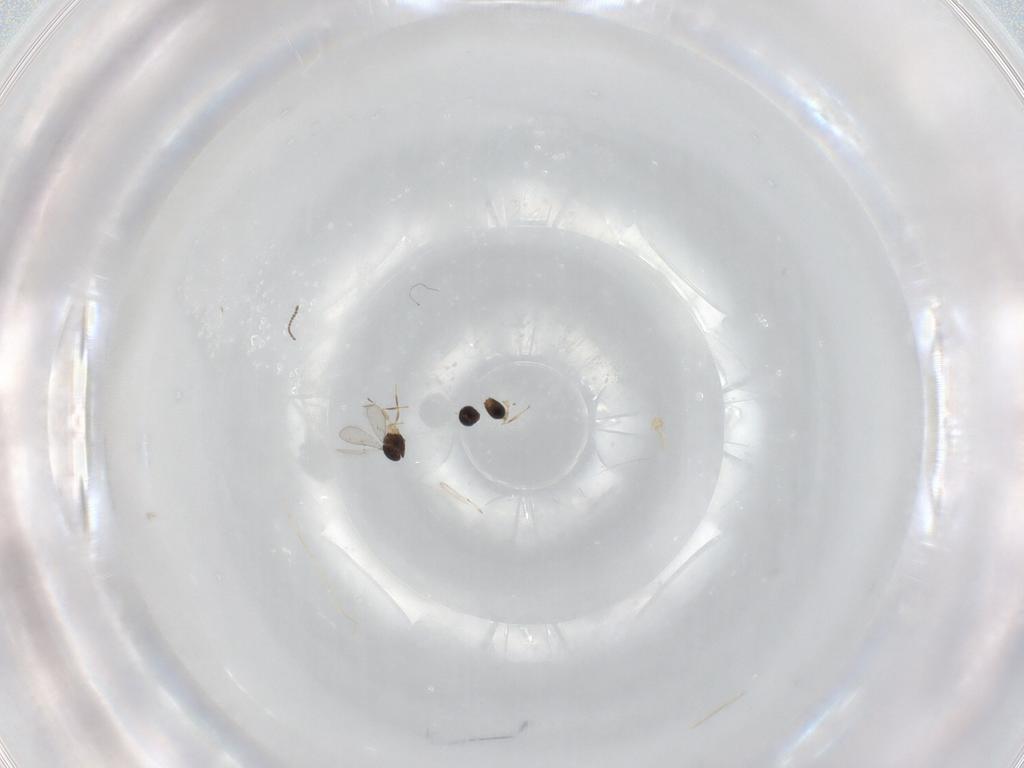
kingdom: Animalia
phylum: Arthropoda
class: Insecta
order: Hymenoptera
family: Scelionidae
